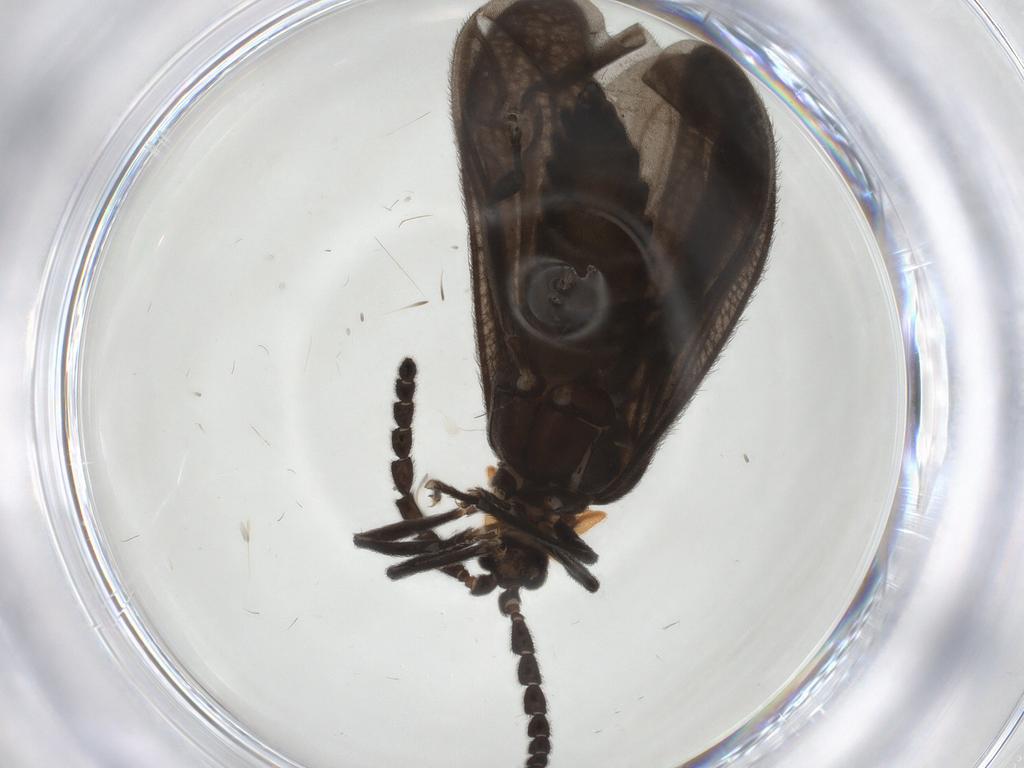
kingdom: Animalia
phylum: Arthropoda
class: Insecta
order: Coleoptera
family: Lycidae
